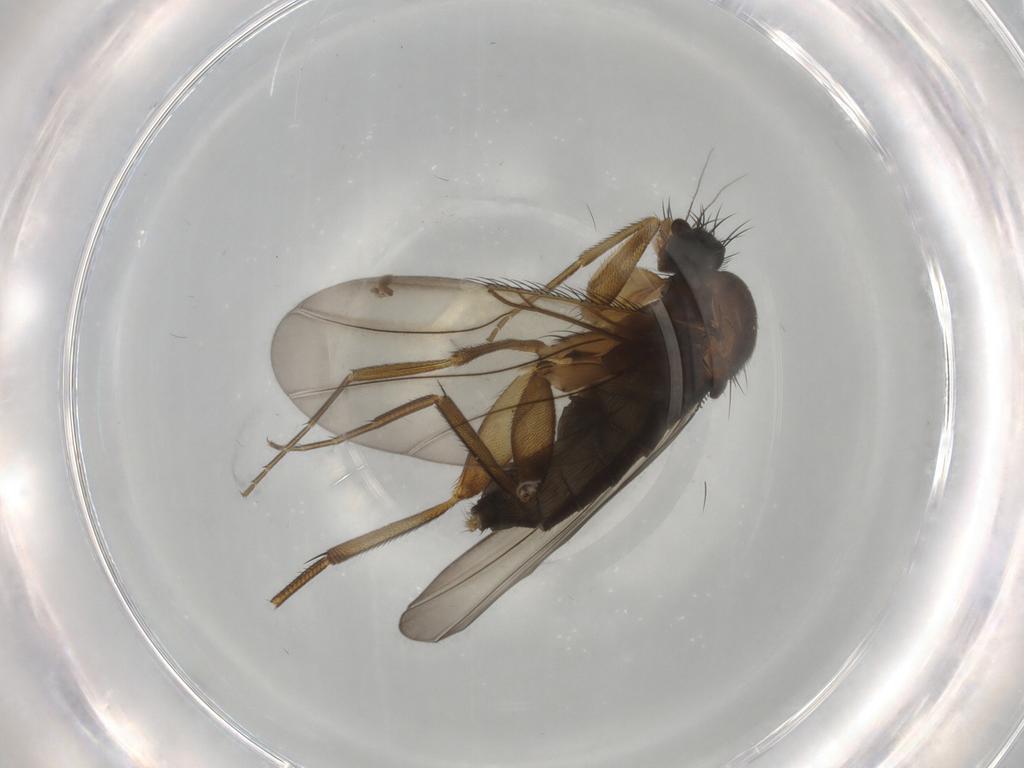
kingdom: Animalia
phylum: Arthropoda
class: Insecta
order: Diptera
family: Phoridae
